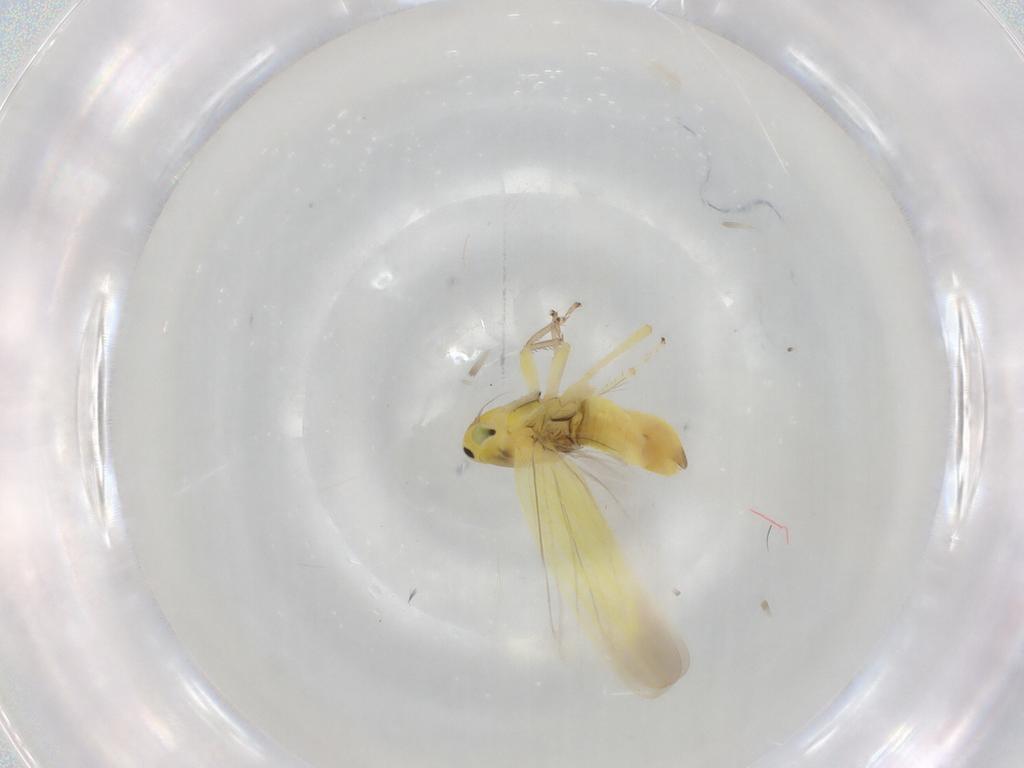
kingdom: Animalia
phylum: Arthropoda
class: Insecta
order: Hemiptera
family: Cicadellidae
